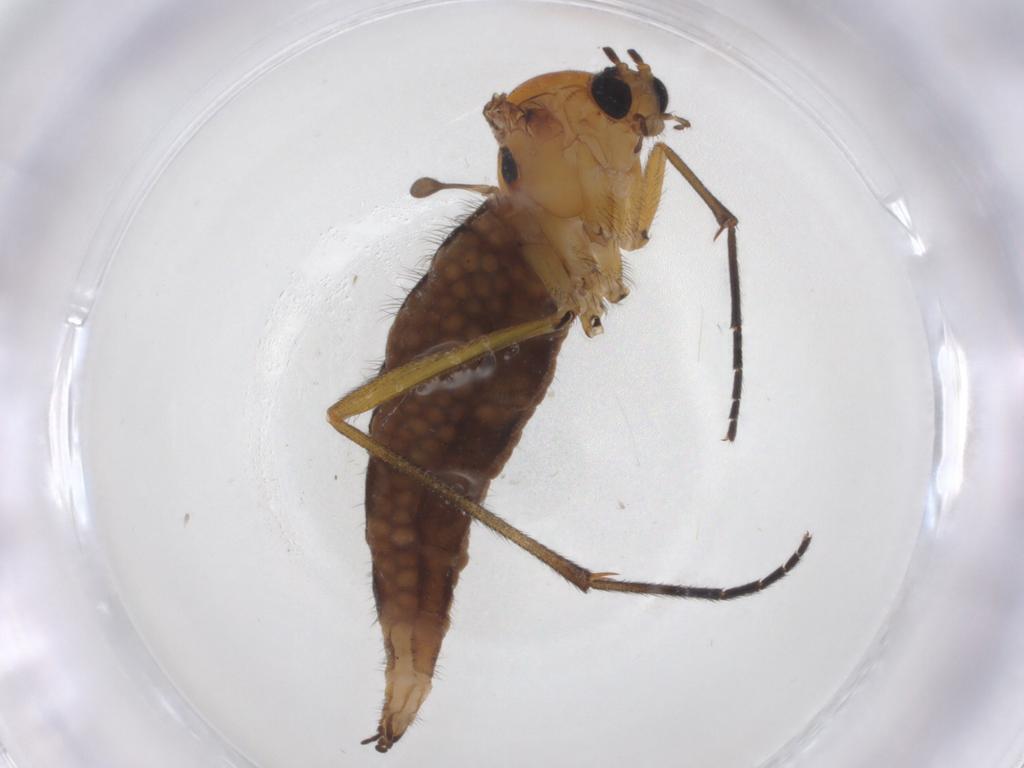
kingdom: Animalia
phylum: Arthropoda
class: Insecta
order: Diptera
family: Sciaridae
